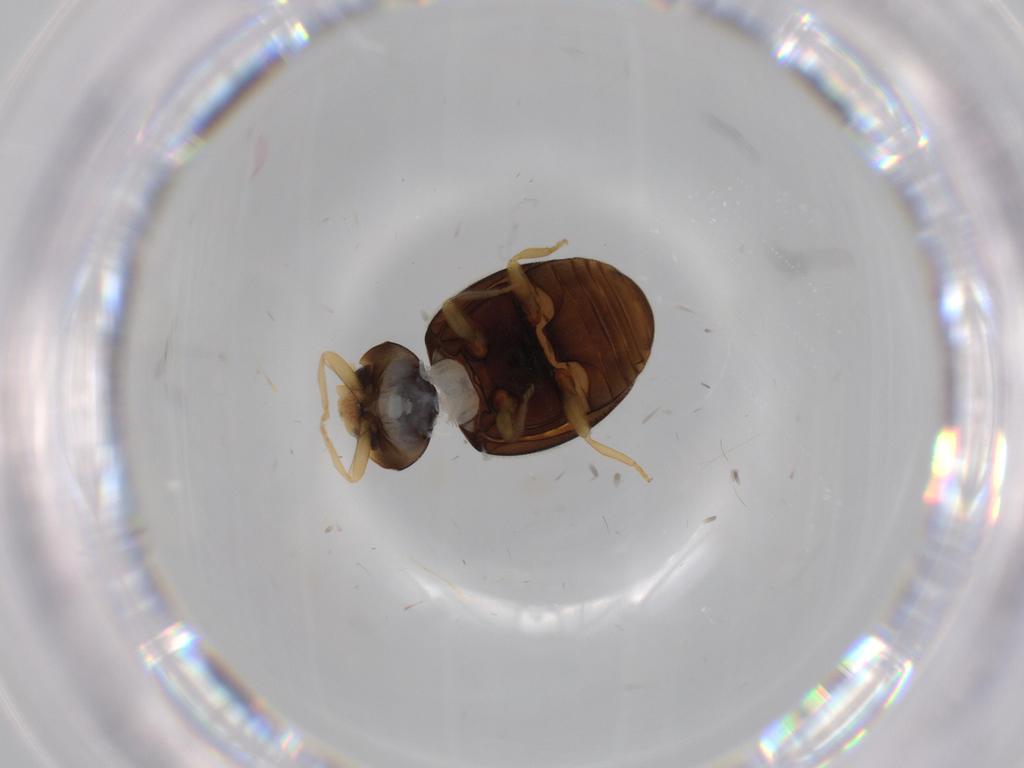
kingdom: Animalia
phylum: Arthropoda
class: Insecta
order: Coleoptera
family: Coccinellidae
